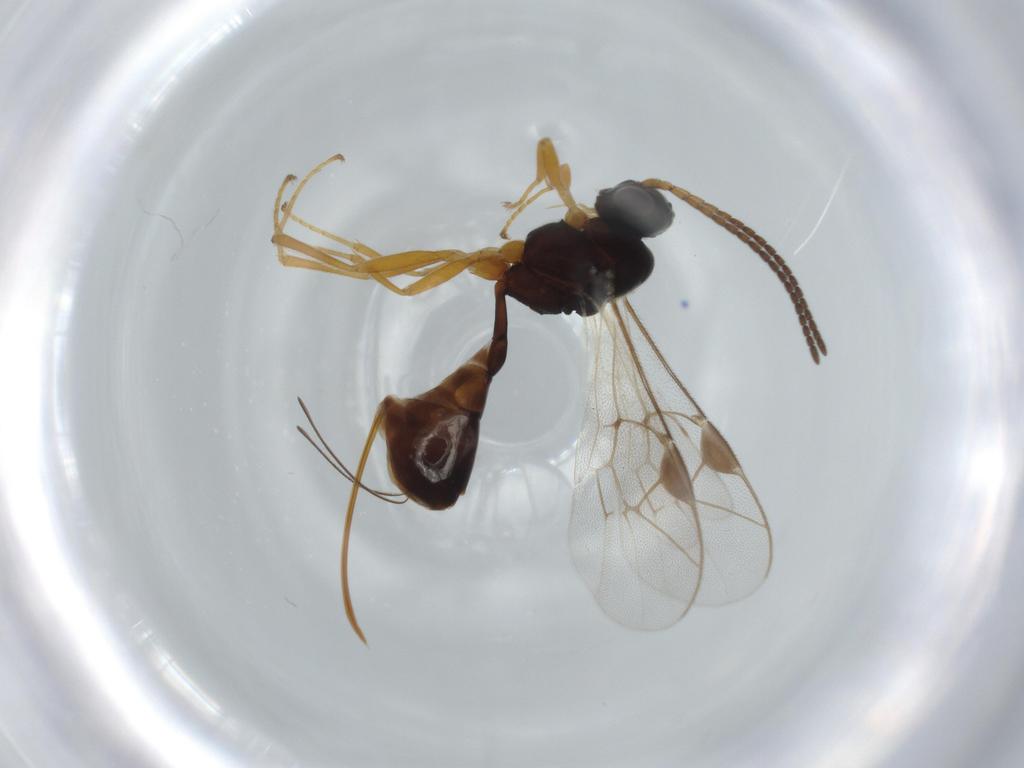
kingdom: Animalia
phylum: Arthropoda
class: Insecta
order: Hymenoptera
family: Ichneumonidae
